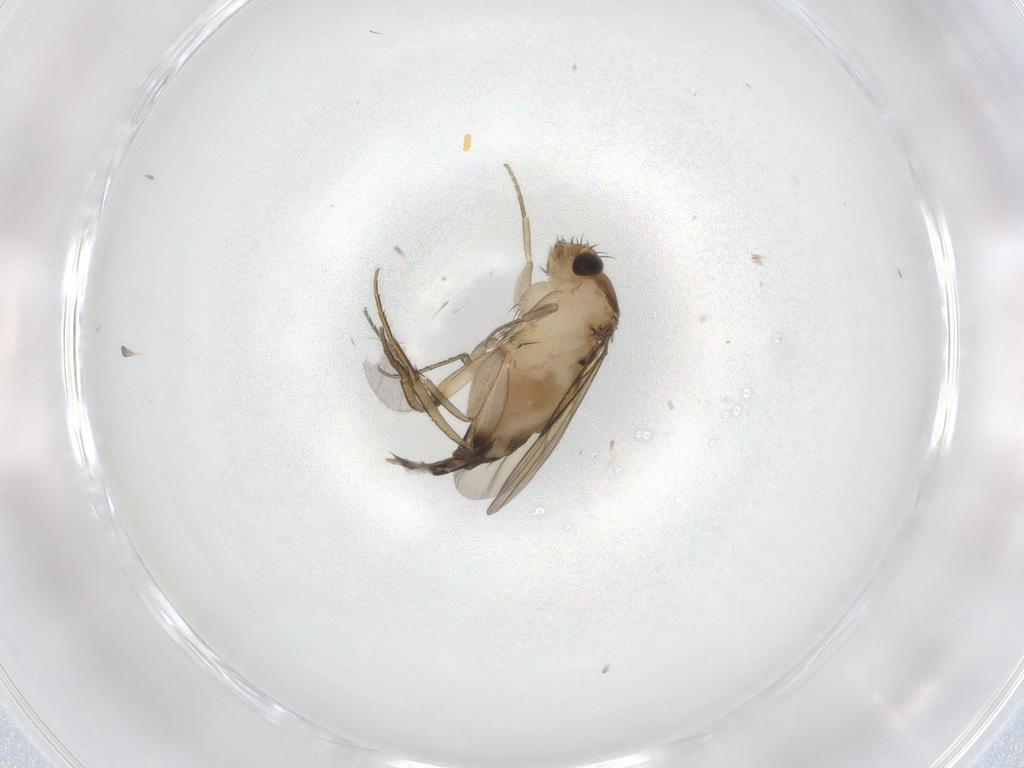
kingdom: Animalia
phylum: Arthropoda
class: Insecta
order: Diptera
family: Phoridae
